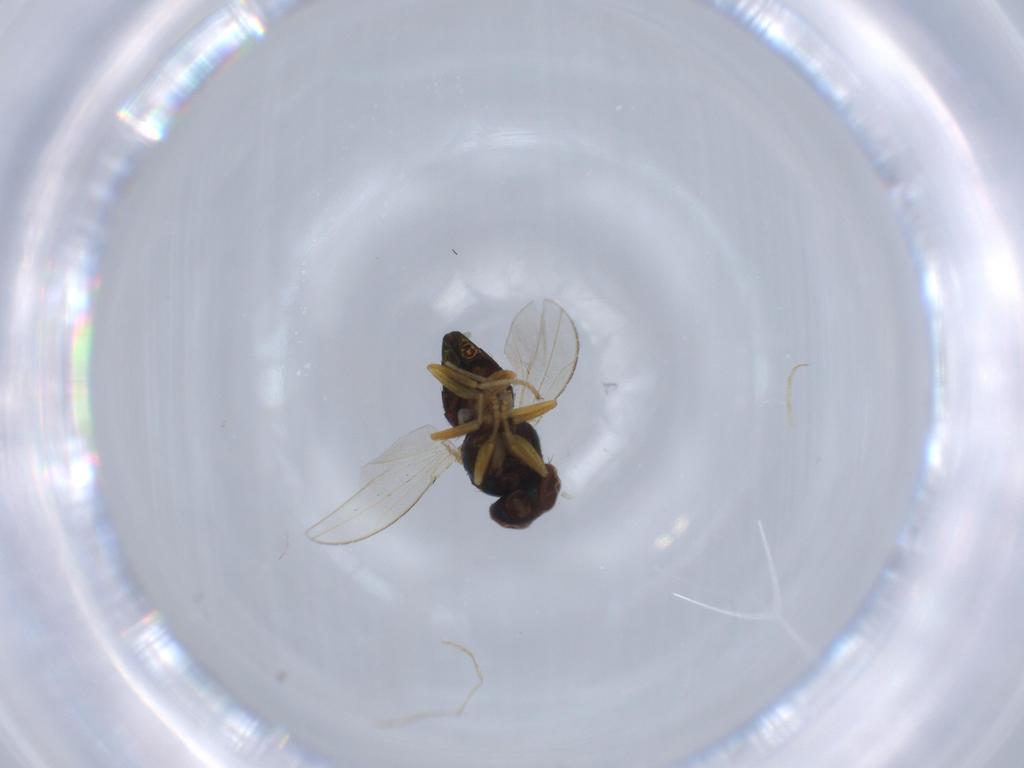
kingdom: Animalia
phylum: Arthropoda
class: Insecta
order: Diptera
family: Ephydridae
